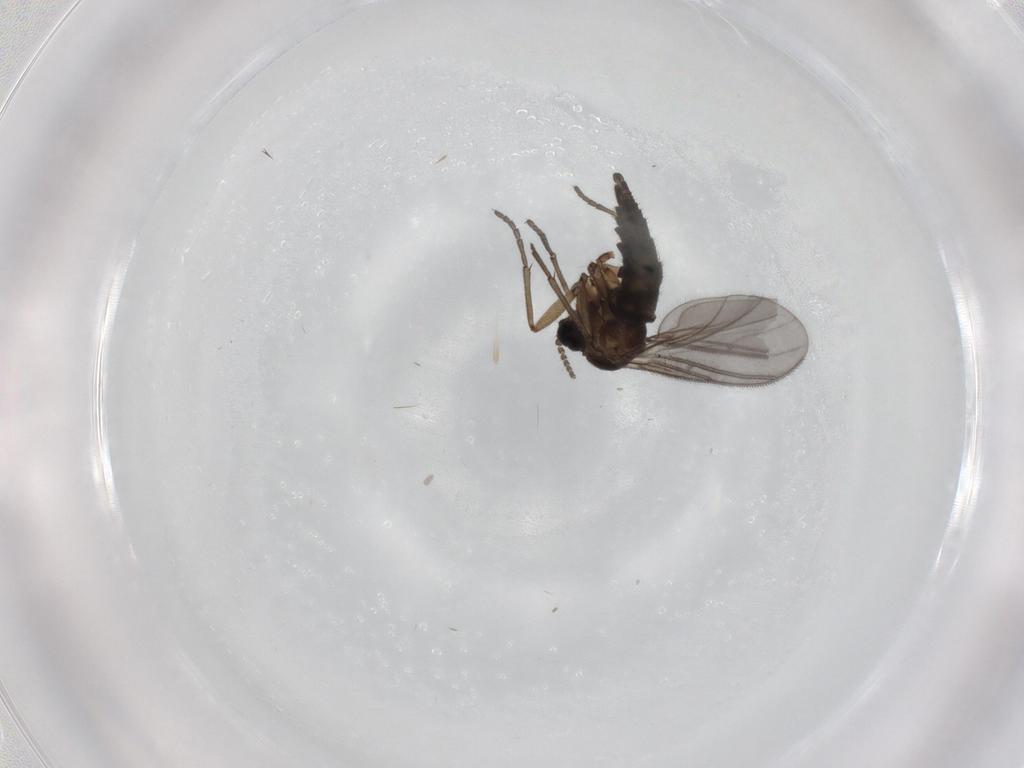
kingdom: Animalia
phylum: Arthropoda
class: Insecta
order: Diptera
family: Sciaridae
